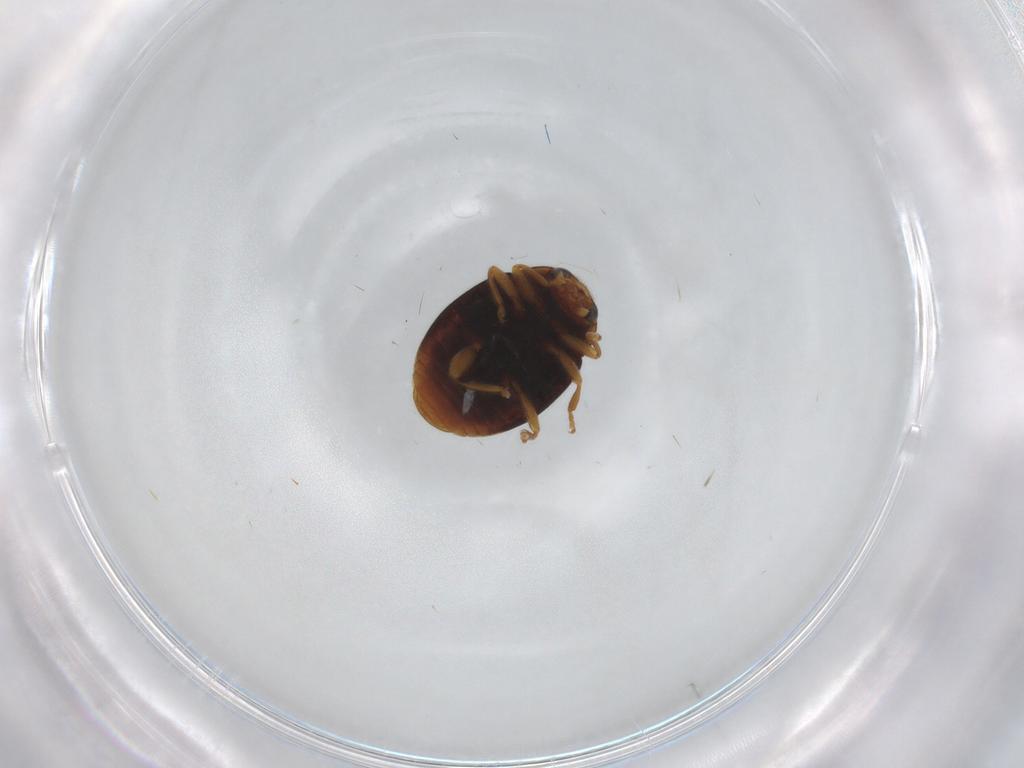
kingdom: Animalia
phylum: Arthropoda
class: Insecta
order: Coleoptera
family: Coccinellidae
